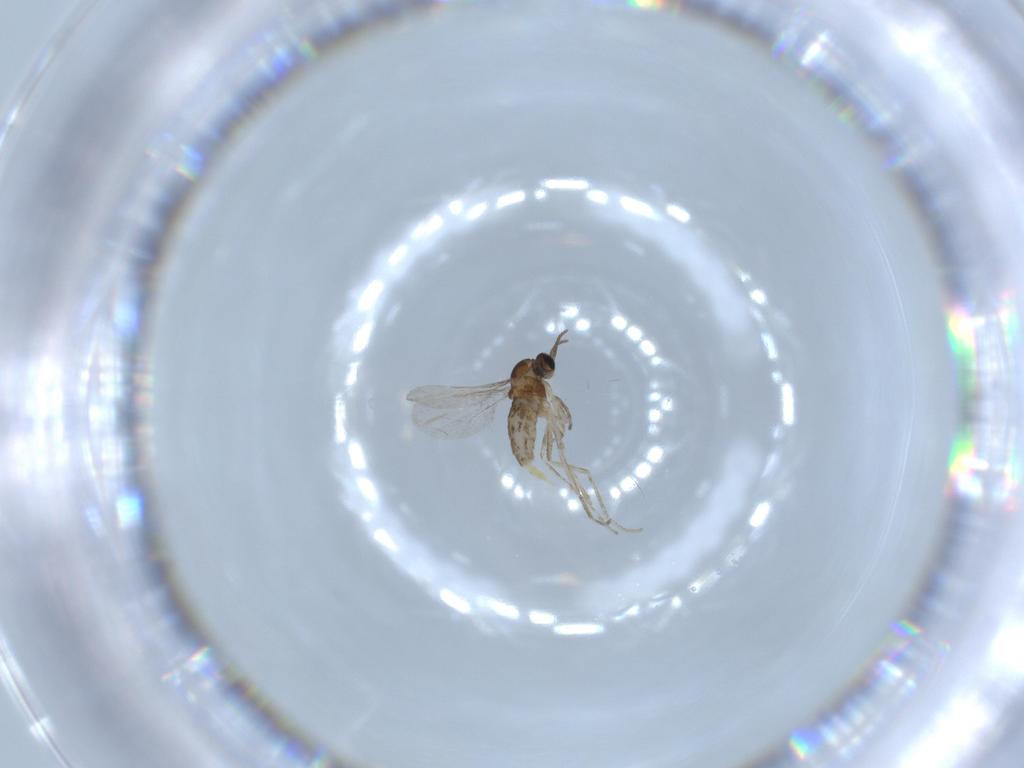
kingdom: Animalia
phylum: Arthropoda
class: Insecta
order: Diptera
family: Cecidomyiidae
